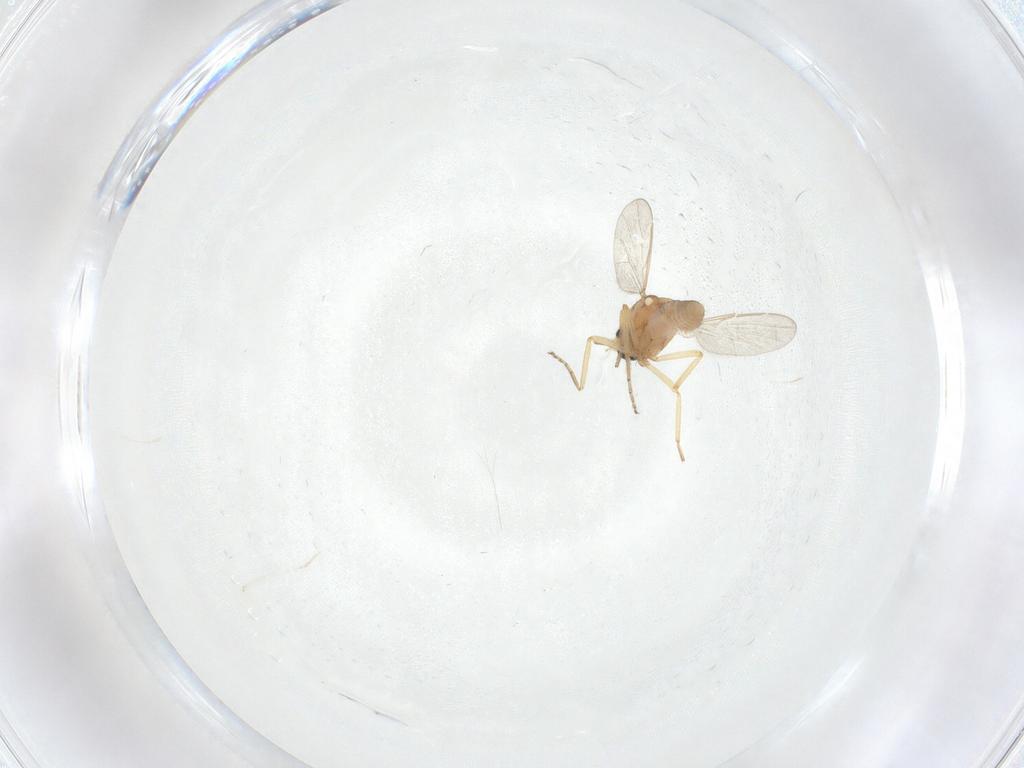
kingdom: Animalia
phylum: Arthropoda
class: Insecta
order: Diptera
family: Ceratopogonidae
